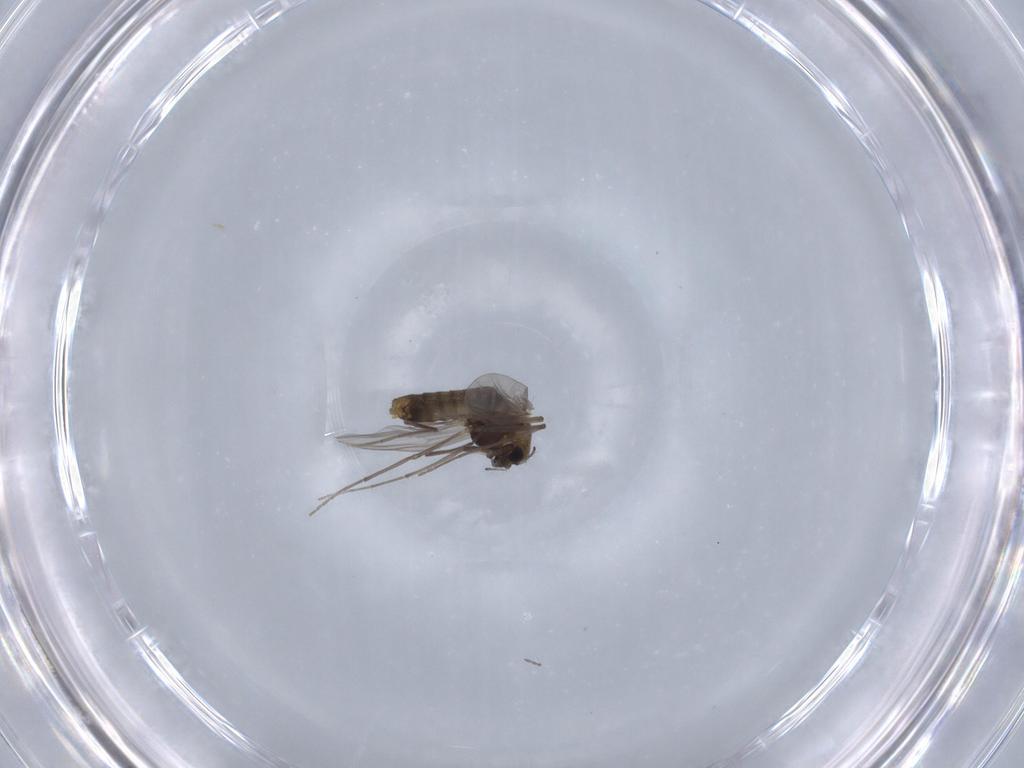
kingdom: Animalia
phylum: Arthropoda
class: Insecta
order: Diptera
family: Chironomidae
